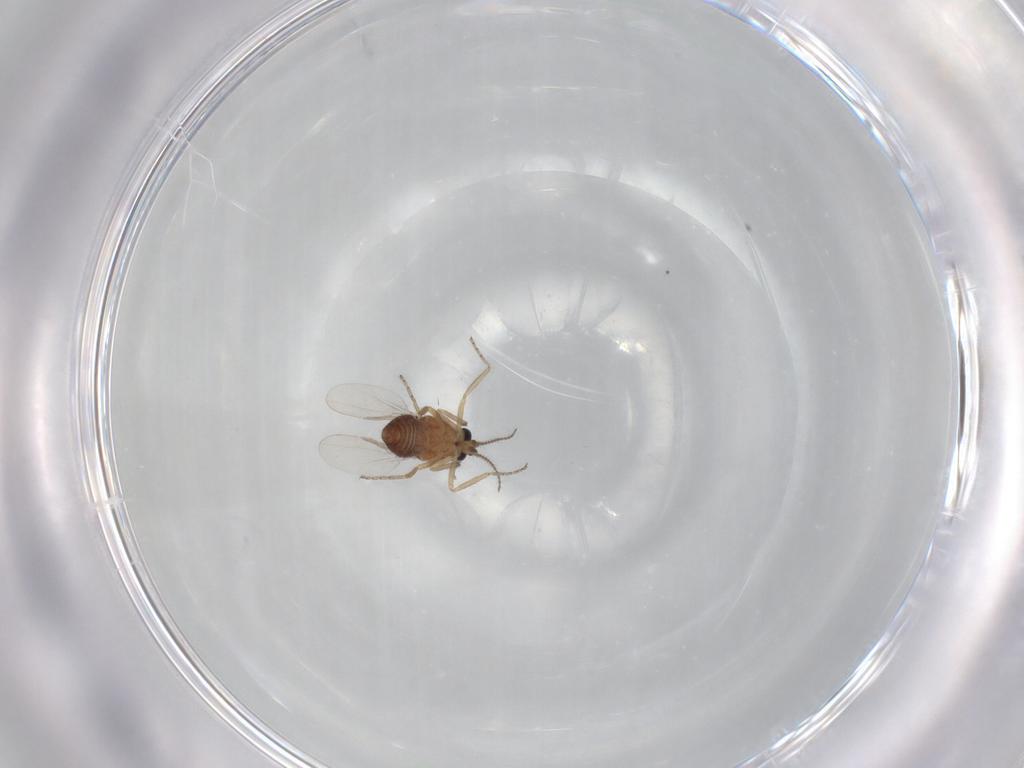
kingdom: Animalia
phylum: Arthropoda
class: Insecta
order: Diptera
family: Ceratopogonidae
